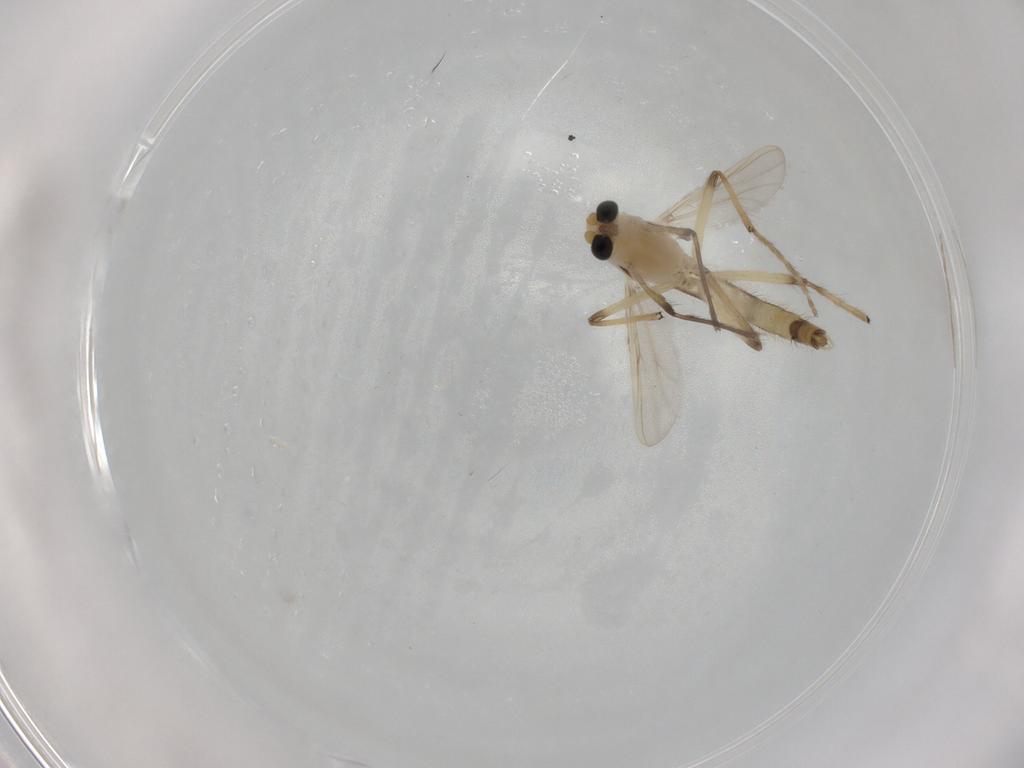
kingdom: Animalia
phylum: Arthropoda
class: Insecta
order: Diptera
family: Chironomidae
